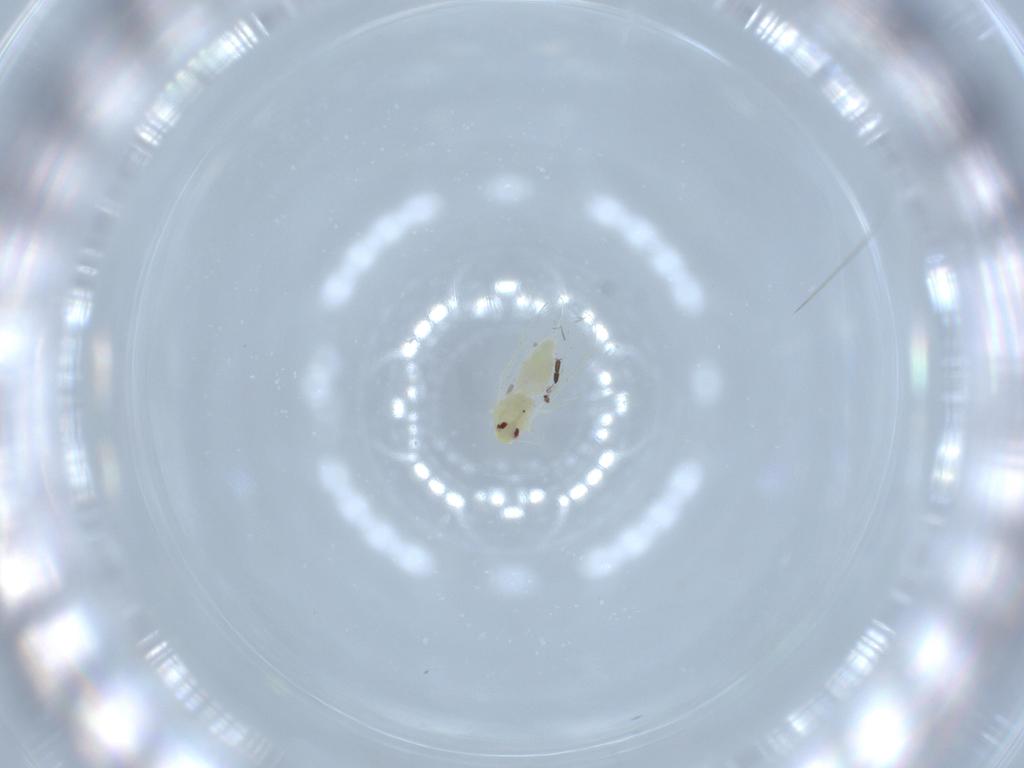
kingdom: Animalia
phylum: Arthropoda
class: Insecta
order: Hemiptera
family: Aleyrodidae
